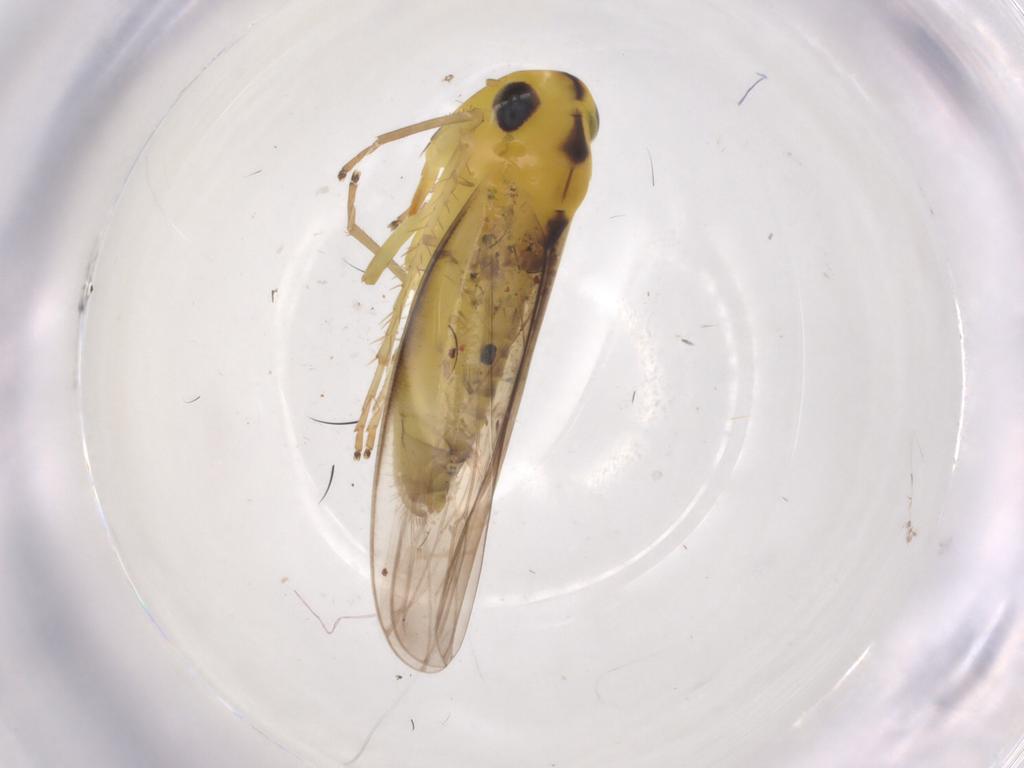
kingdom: Animalia
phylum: Arthropoda
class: Insecta
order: Hemiptera
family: Cicadellidae
